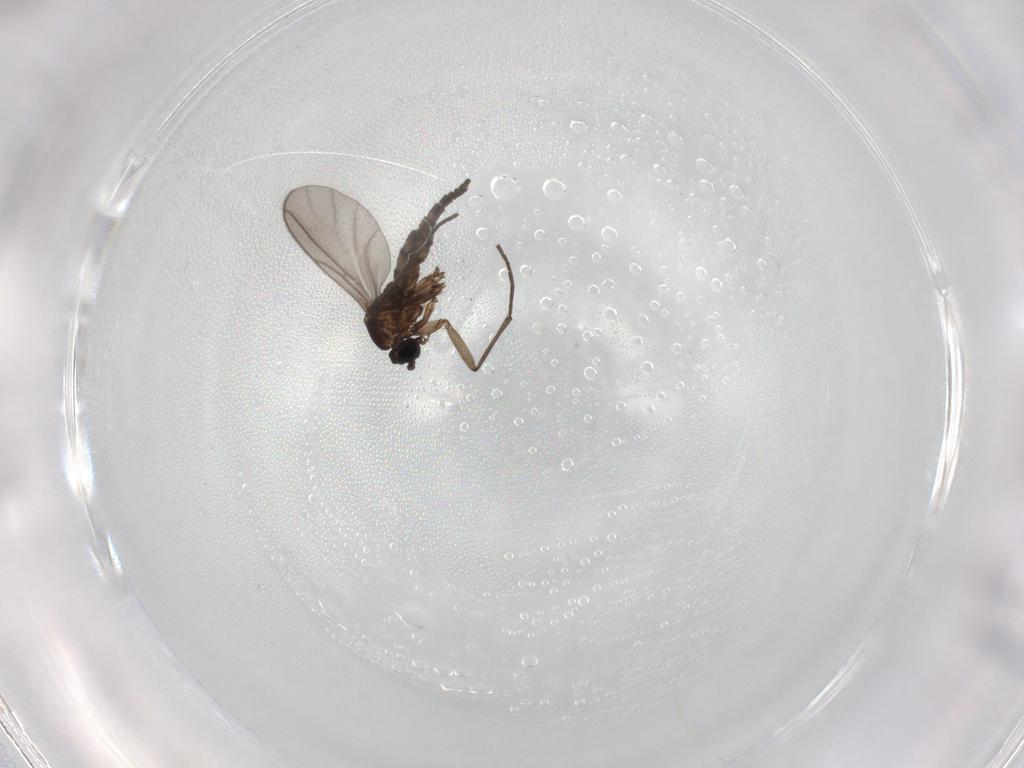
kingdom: Animalia
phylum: Arthropoda
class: Insecta
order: Diptera
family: Sciaridae
